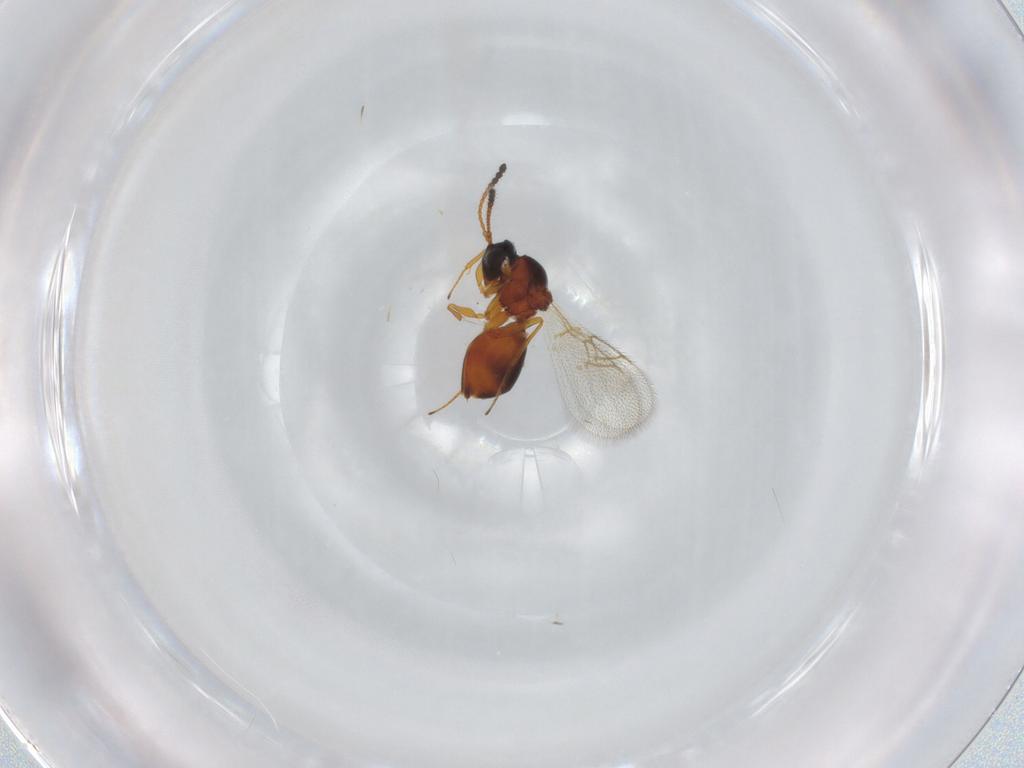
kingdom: Animalia
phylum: Arthropoda
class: Insecta
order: Hymenoptera
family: Figitidae
